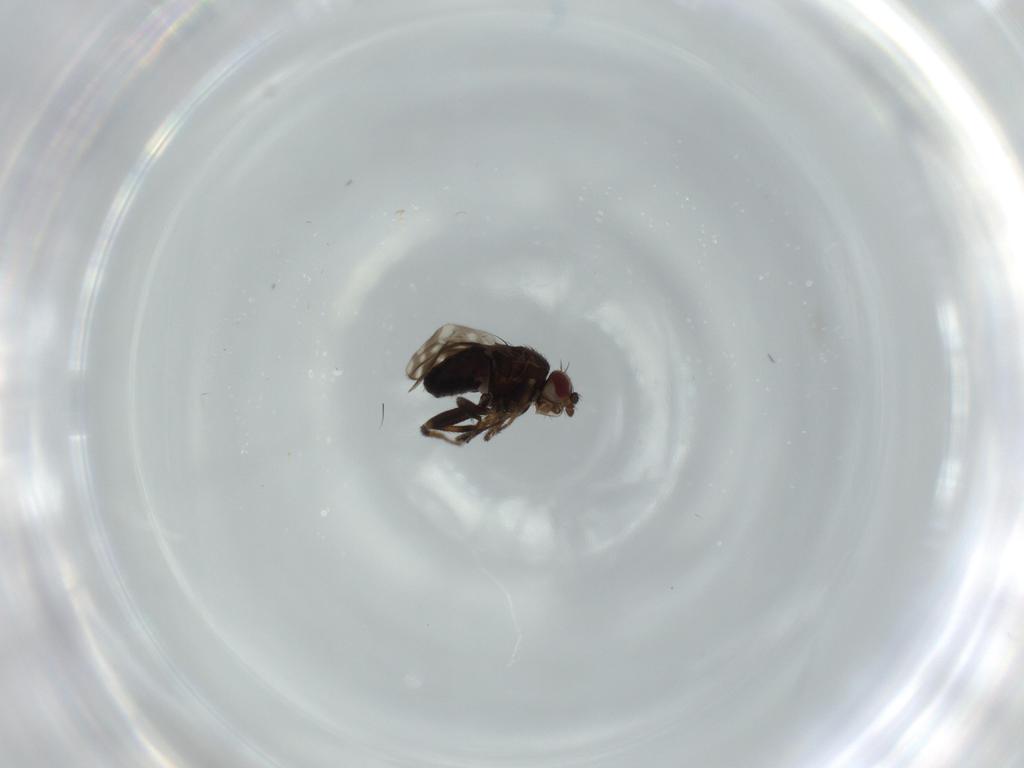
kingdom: Animalia
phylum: Arthropoda
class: Insecta
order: Diptera
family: Sphaeroceridae
